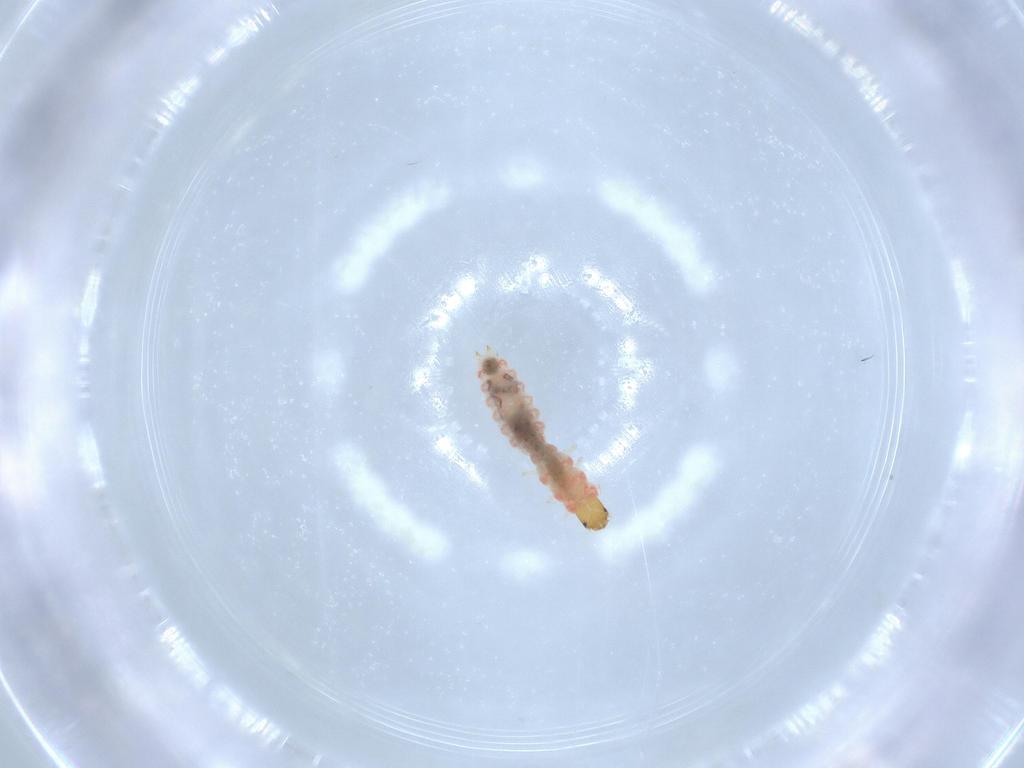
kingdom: Animalia
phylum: Arthropoda
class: Insecta
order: Coleoptera
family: Melyridae
